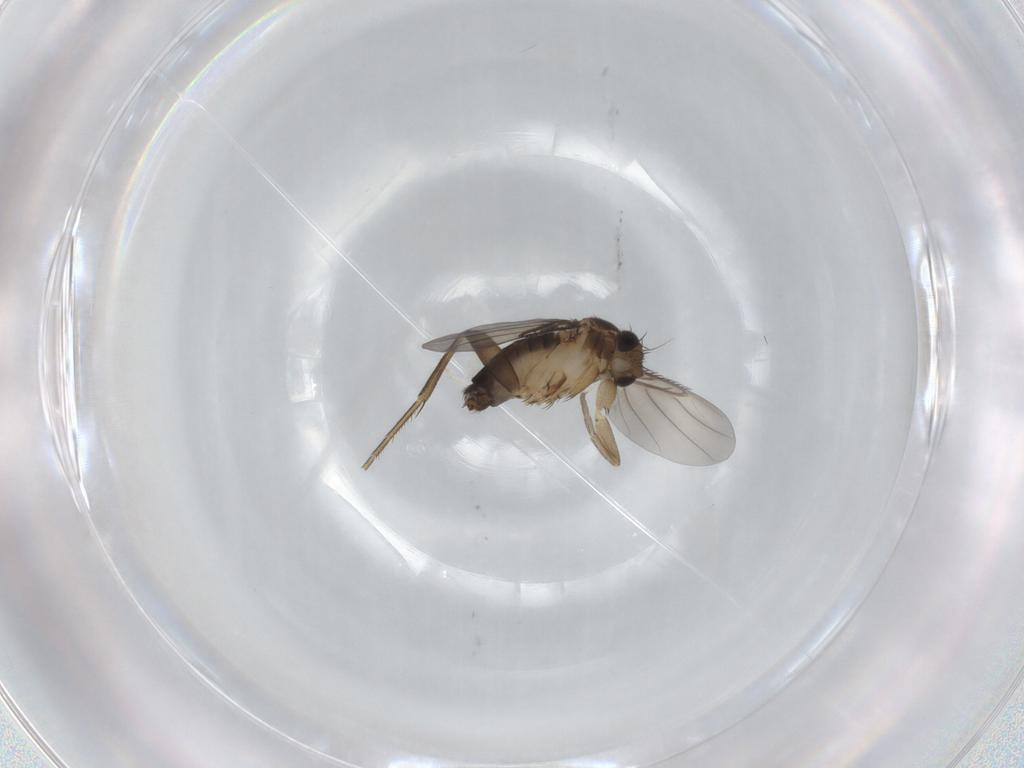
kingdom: Animalia
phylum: Arthropoda
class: Insecta
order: Diptera
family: Phoridae
